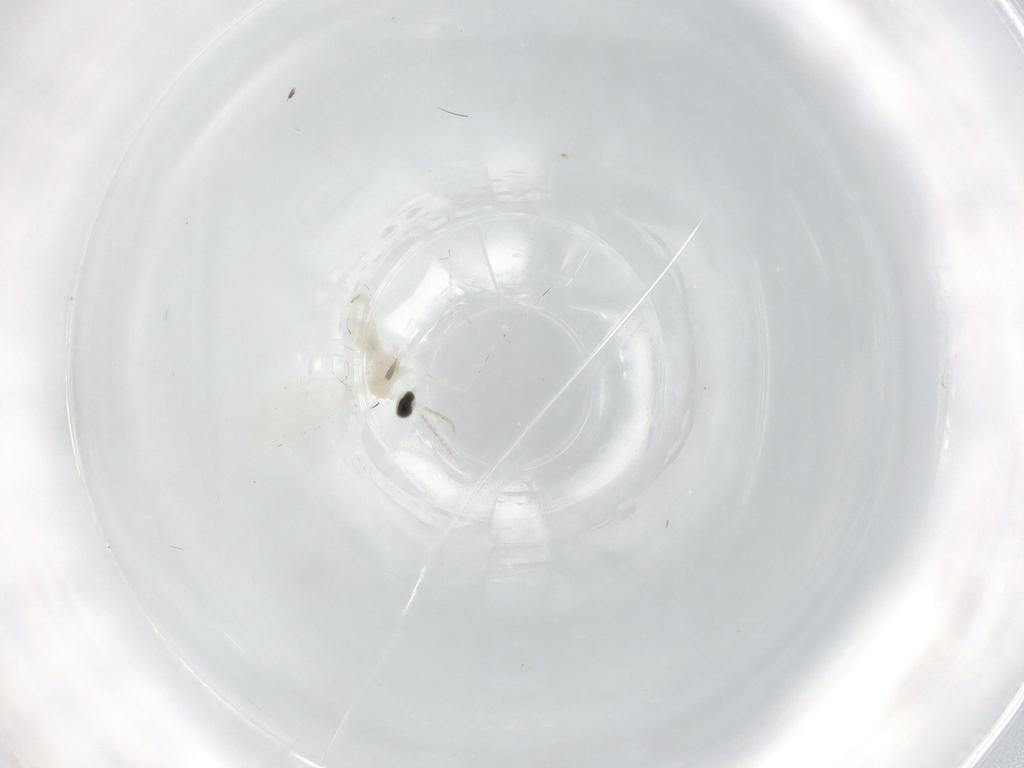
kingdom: Animalia
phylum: Arthropoda
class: Insecta
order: Diptera
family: Cecidomyiidae
